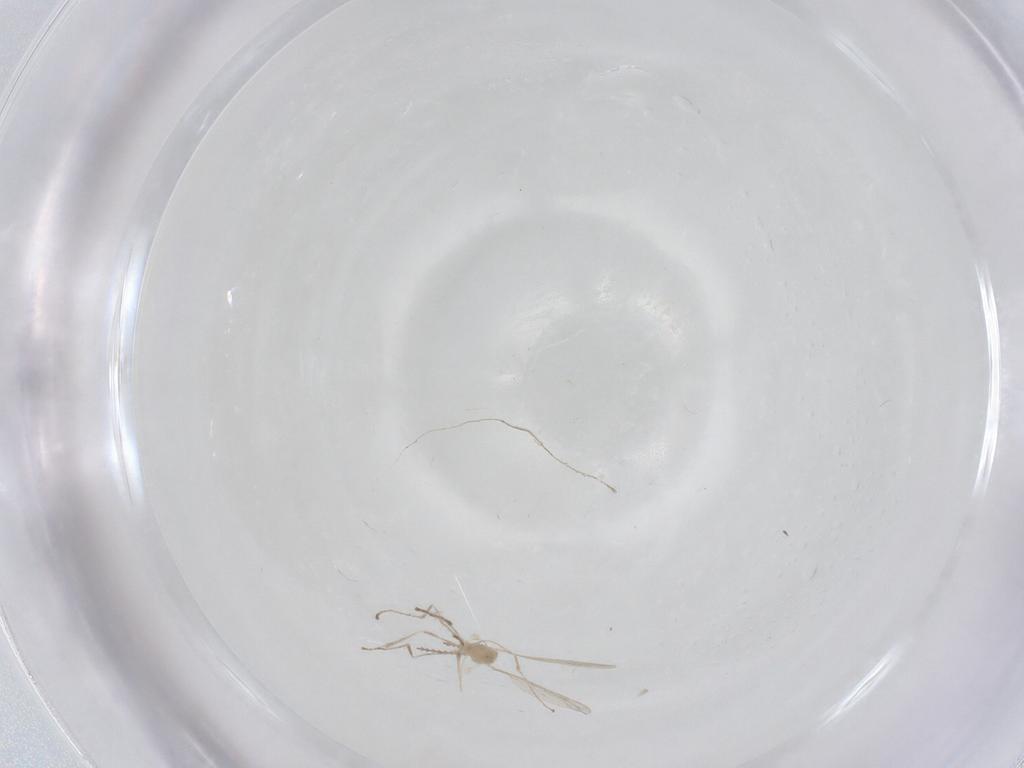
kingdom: Animalia
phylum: Arthropoda
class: Insecta
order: Diptera
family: Cecidomyiidae
